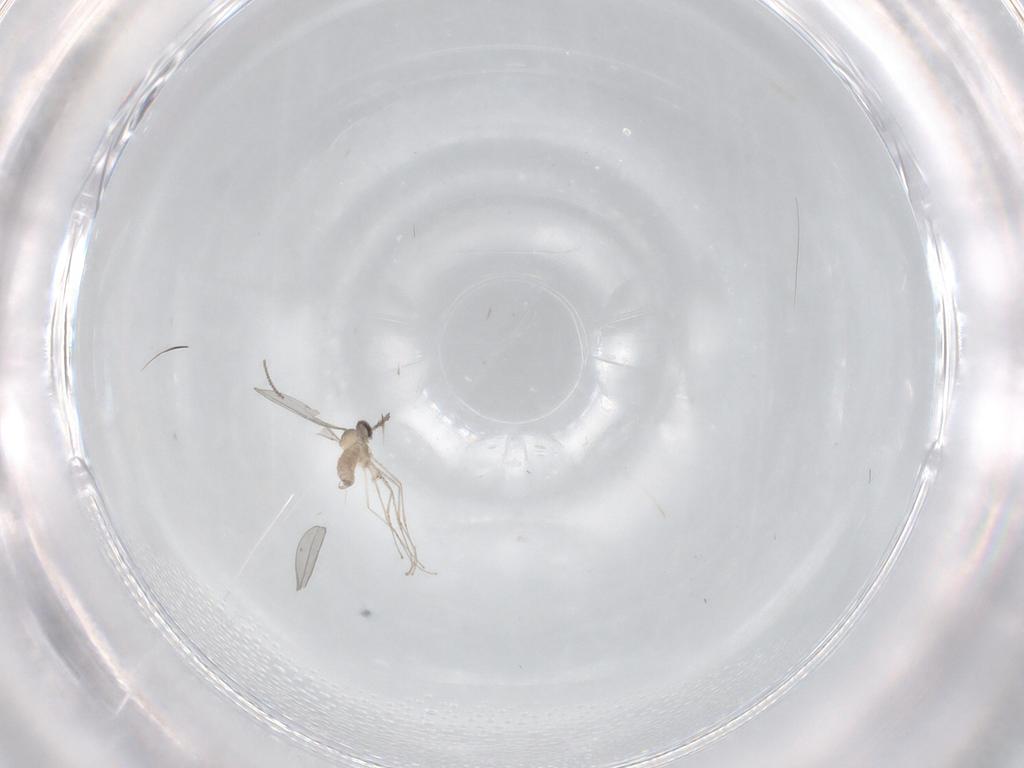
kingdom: Animalia
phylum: Arthropoda
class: Insecta
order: Diptera
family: Cecidomyiidae
